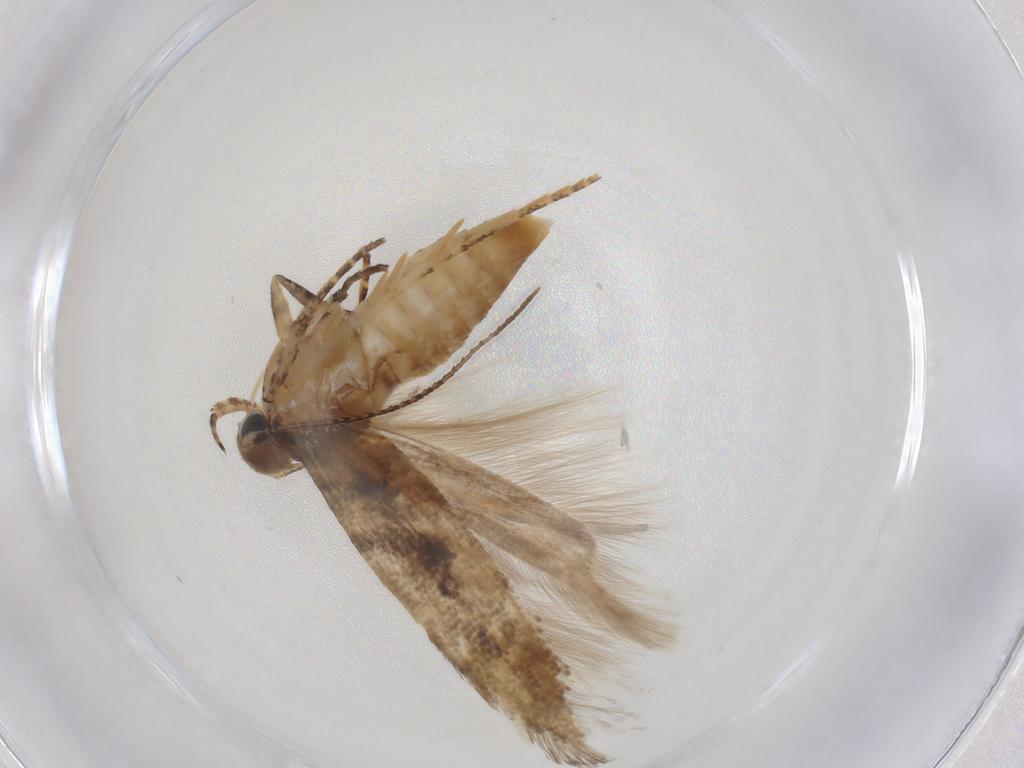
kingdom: Animalia
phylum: Arthropoda
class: Insecta
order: Lepidoptera
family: Gelechiidae
